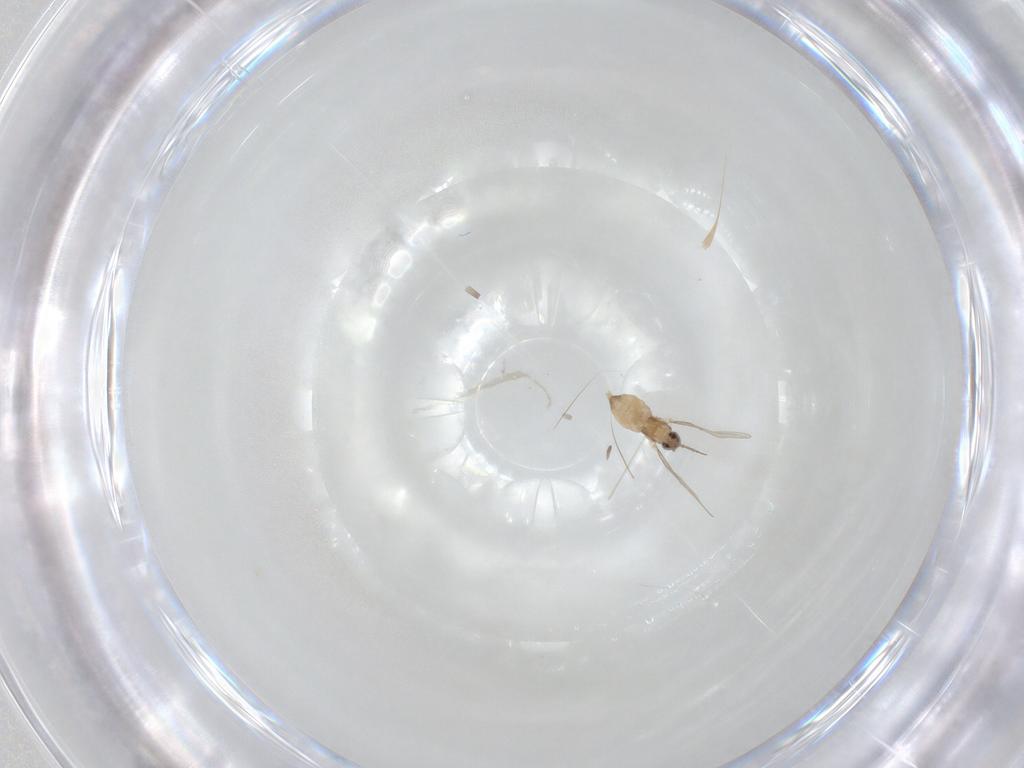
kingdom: Animalia
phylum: Arthropoda
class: Insecta
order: Diptera
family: Cecidomyiidae
